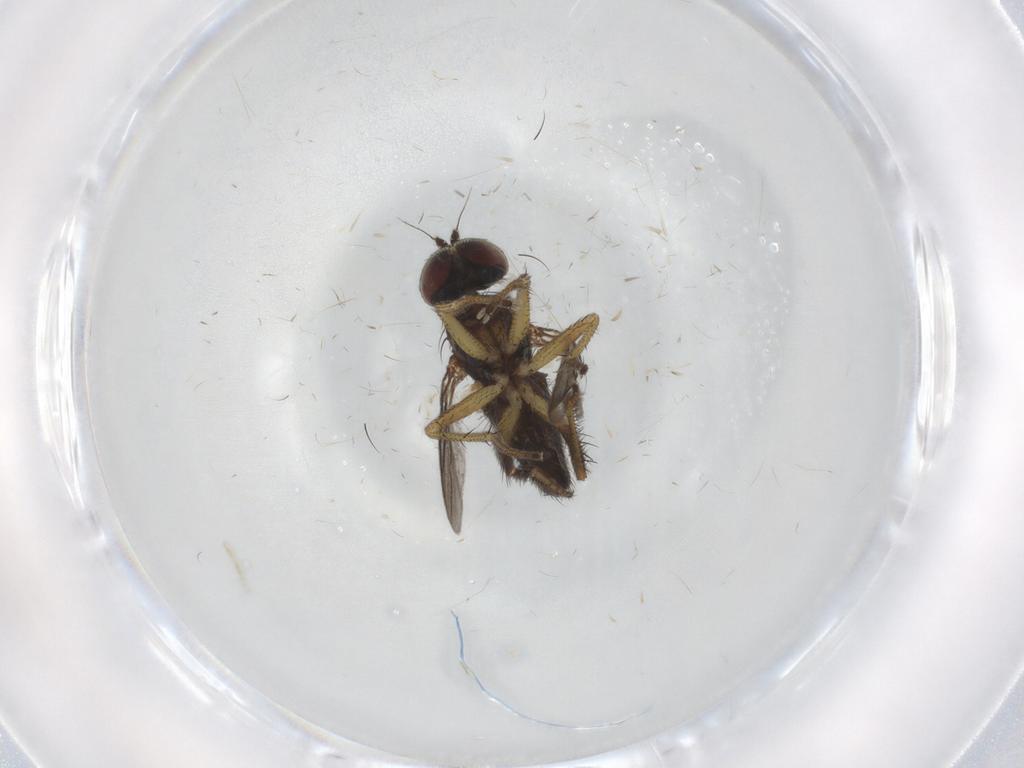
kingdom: Animalia
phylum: Arthropoda
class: Insecta
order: Diptera
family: Dolichopodidae
